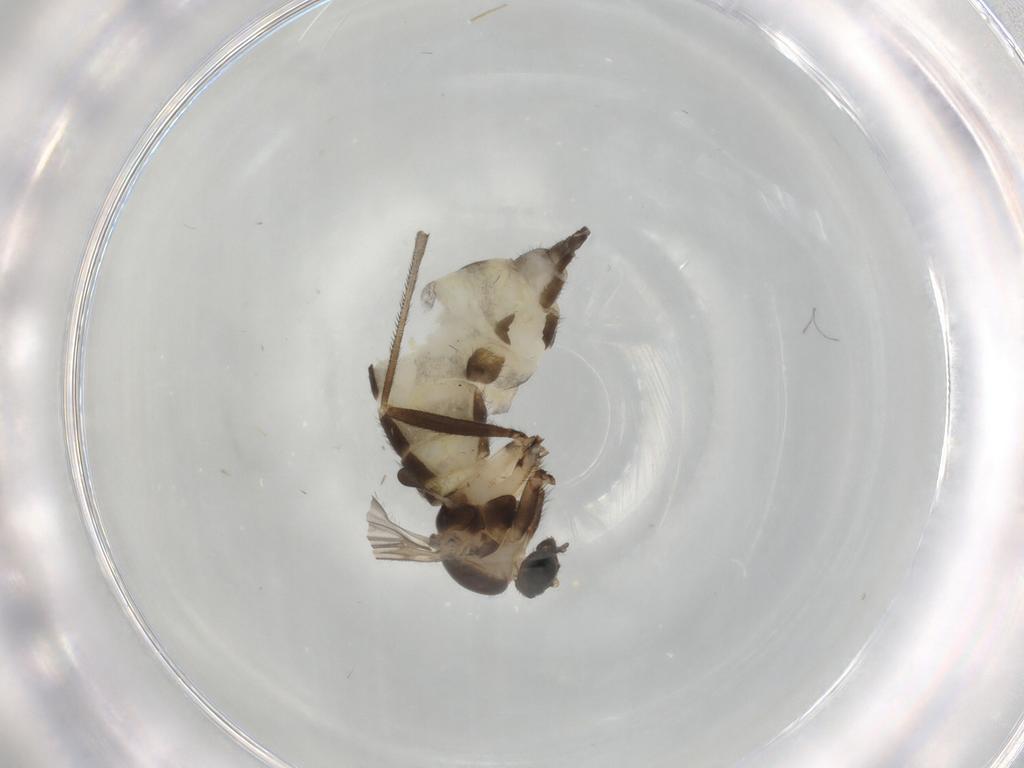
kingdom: Animalia
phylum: Arthropoda
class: Insecta
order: Diptera
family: Sciaridae
